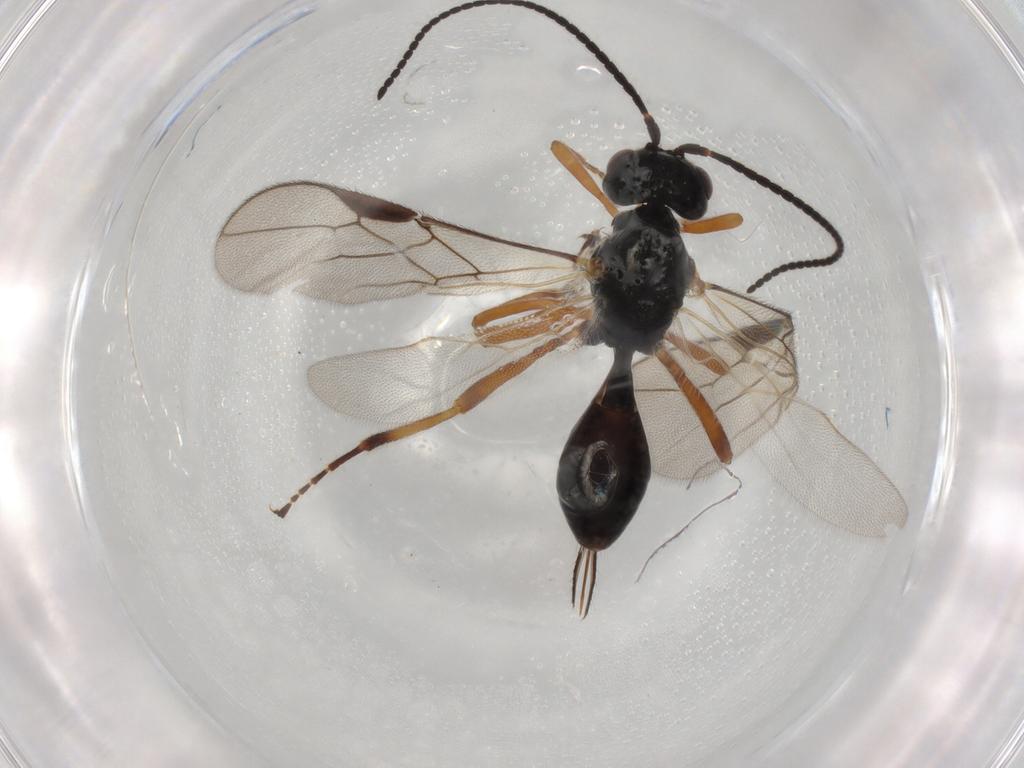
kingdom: Animalia
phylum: Arthropoda
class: Insecta
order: Hymenoptera
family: Braconidae
